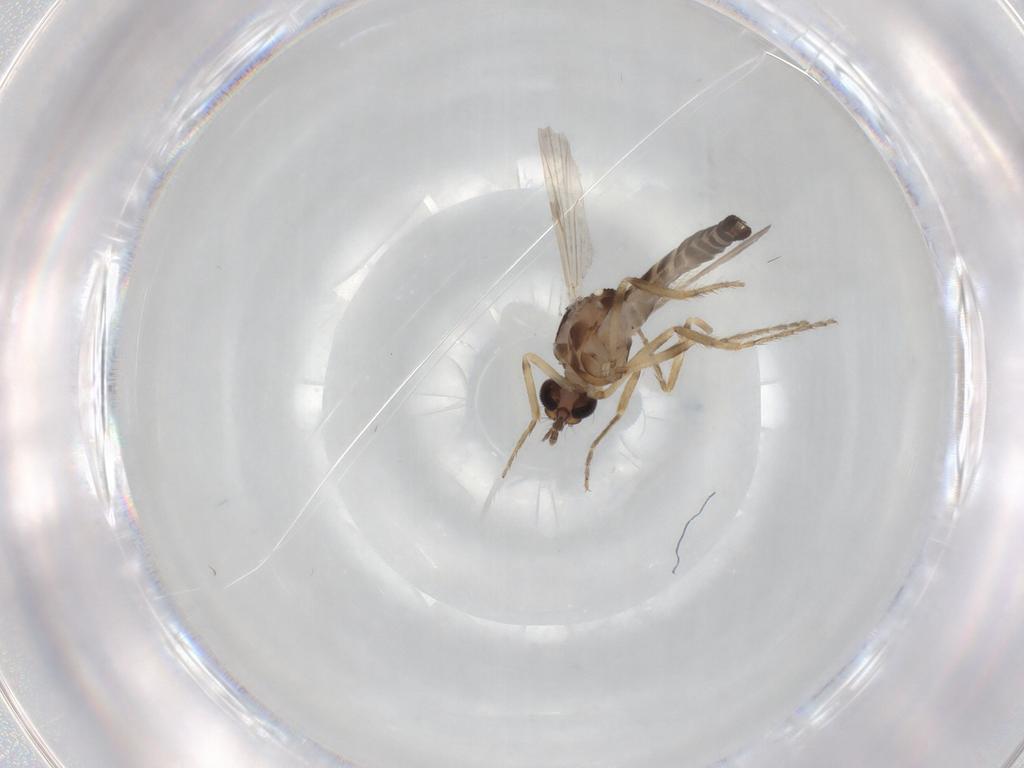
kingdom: Animalia
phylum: Arthropoda
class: Insecta
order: Diptera
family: Ceratopogonidae
